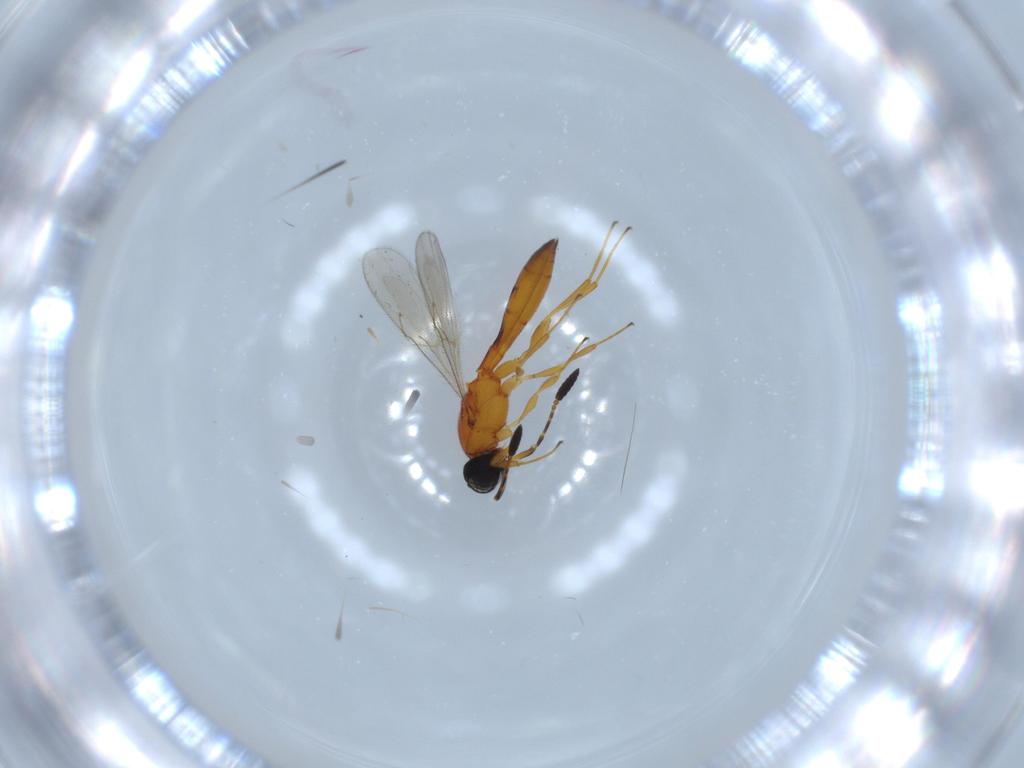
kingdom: Animalia
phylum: Arthropoda
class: Insecta
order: Hymenoptera
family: Scelionidae
